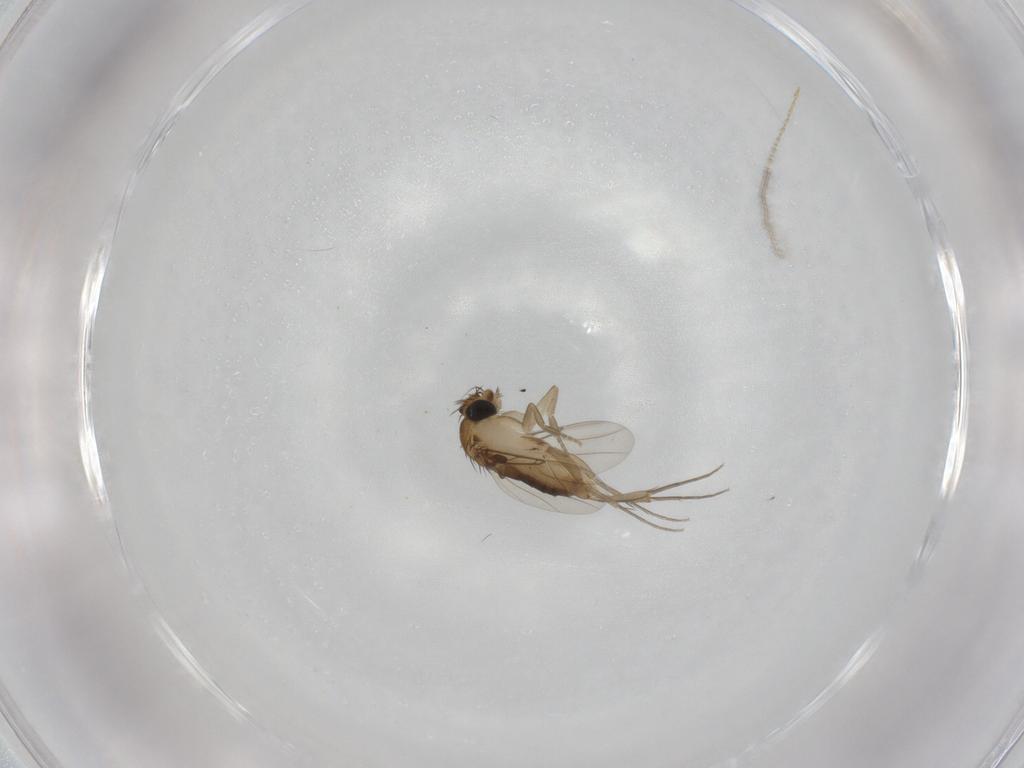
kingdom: Animalia
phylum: Arthropoda
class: Insecta
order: Diptera
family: Phoridae
